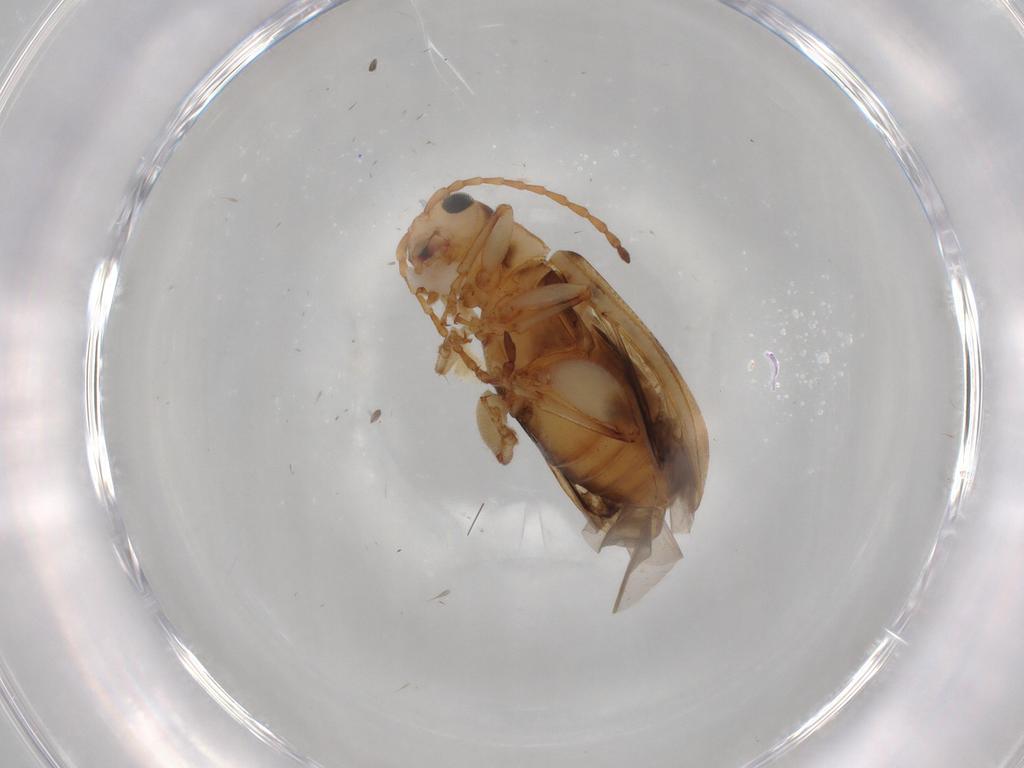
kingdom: Animalia
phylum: Arthropoda
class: Insecta
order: Coleoptera
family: Chrysomelidae
